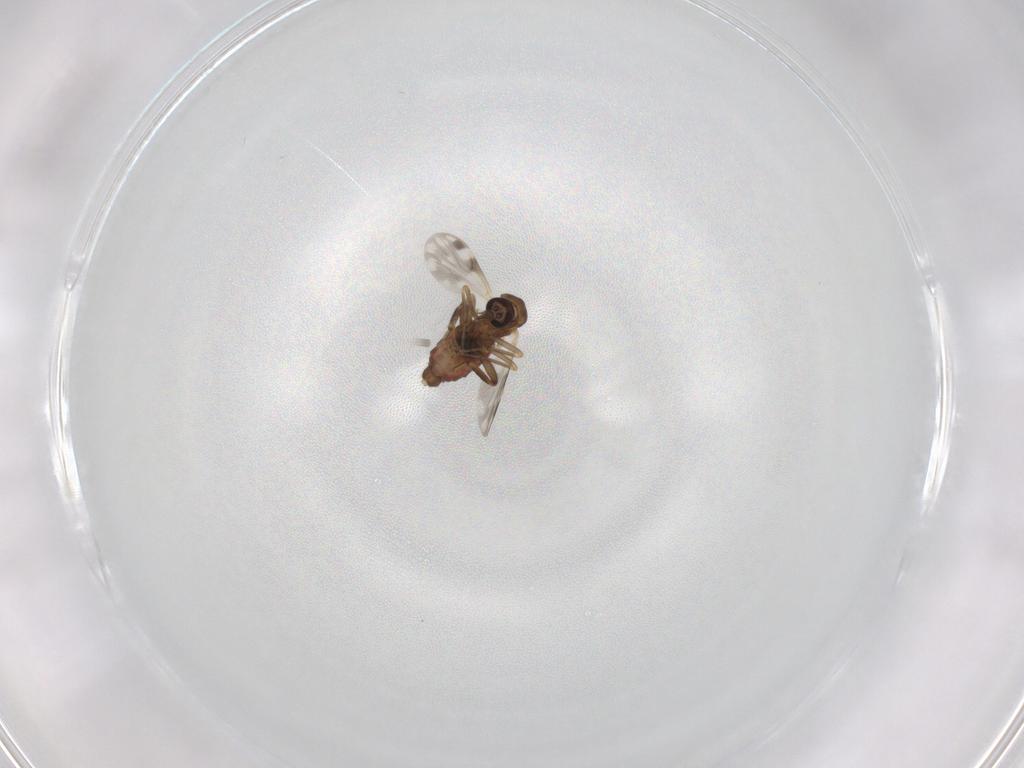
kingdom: Animalia
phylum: Arthropoda
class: Insecta
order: Diptera
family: Ceratopogonidae
